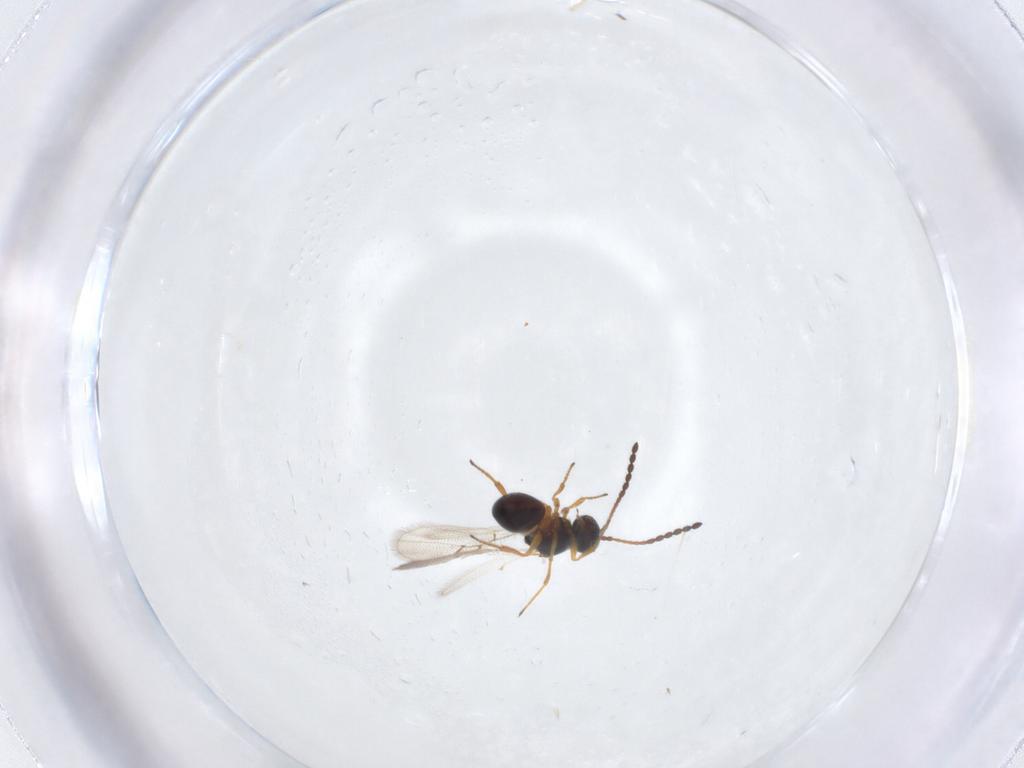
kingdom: Animalia
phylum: Arthropoda
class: Insecta
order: Hymenoptera
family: Figitidae
